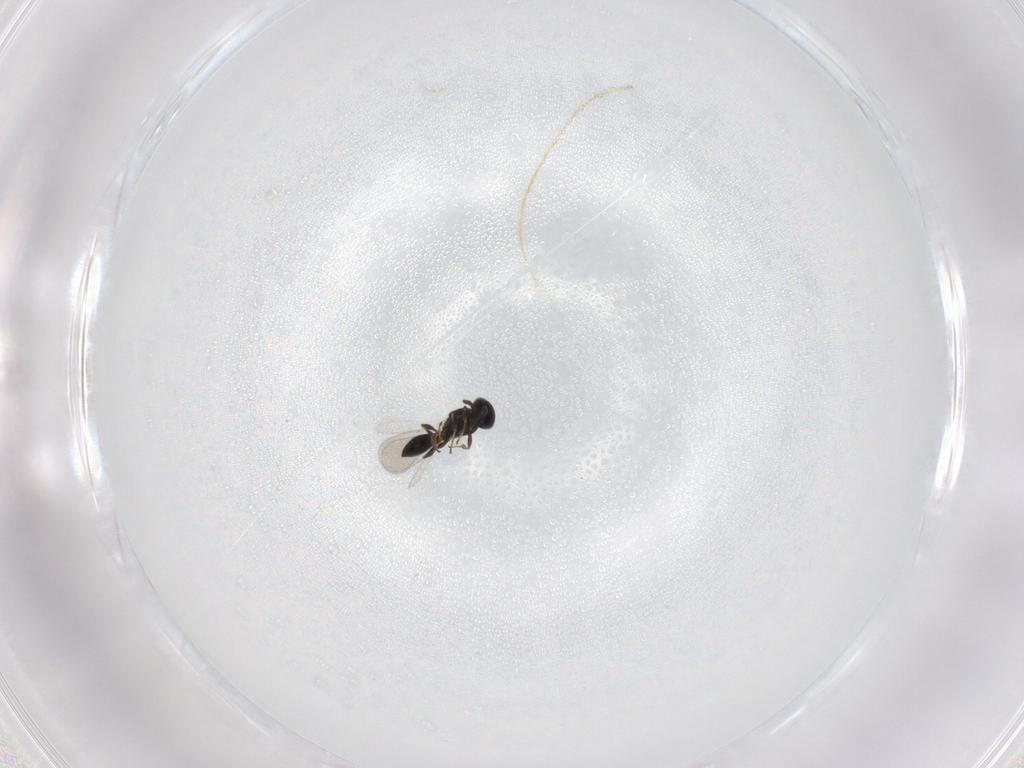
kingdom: Animalia
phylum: Arthropoda
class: Insecta
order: Hymenoptera
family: Platygastridae
